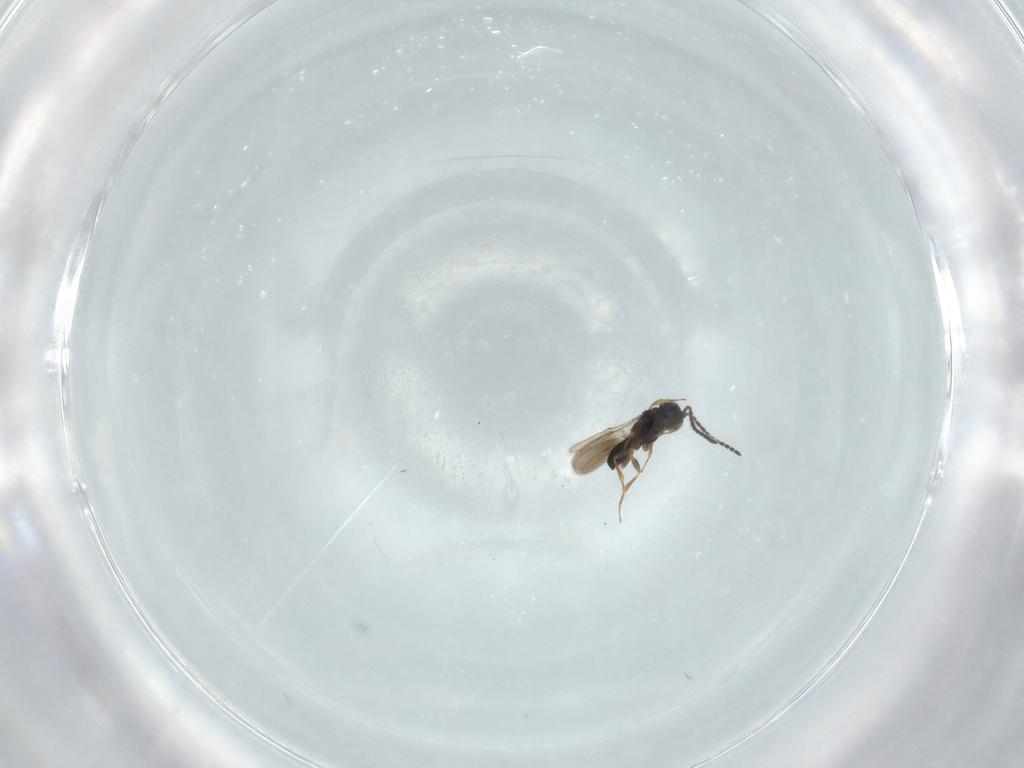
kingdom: Animalia
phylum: Arthropoda
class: Insecta
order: Hymenoptera
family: Scelionidae
